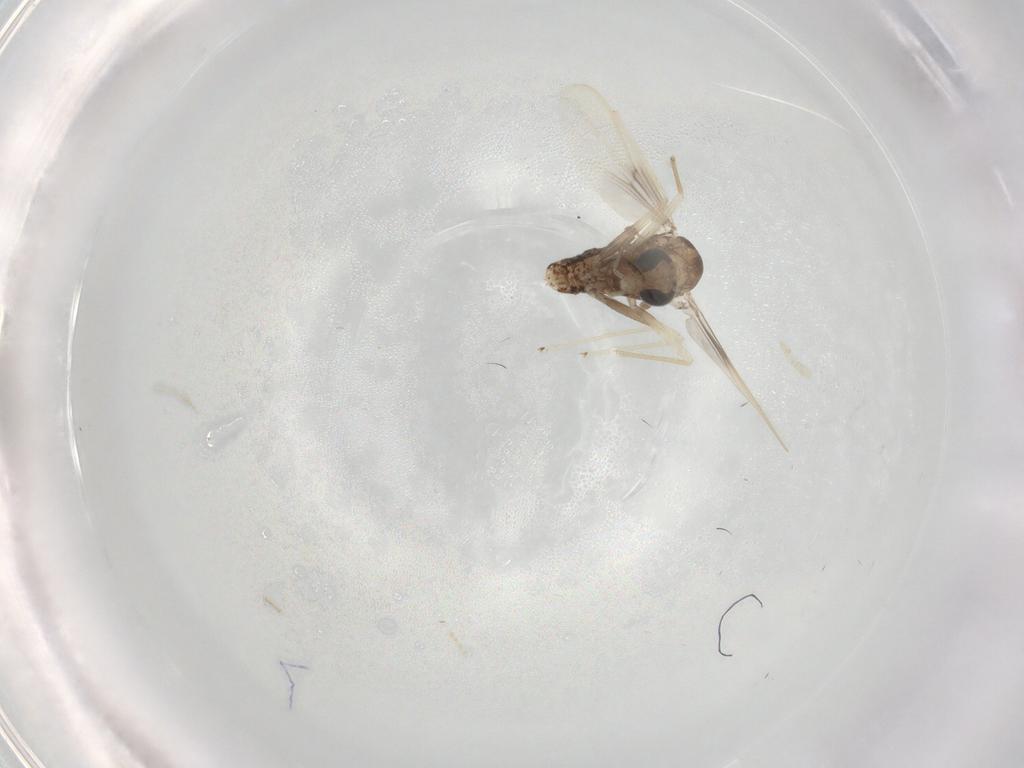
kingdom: Animalia
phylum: Arthropoda
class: Insecta
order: Diptera
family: Chironomidae
